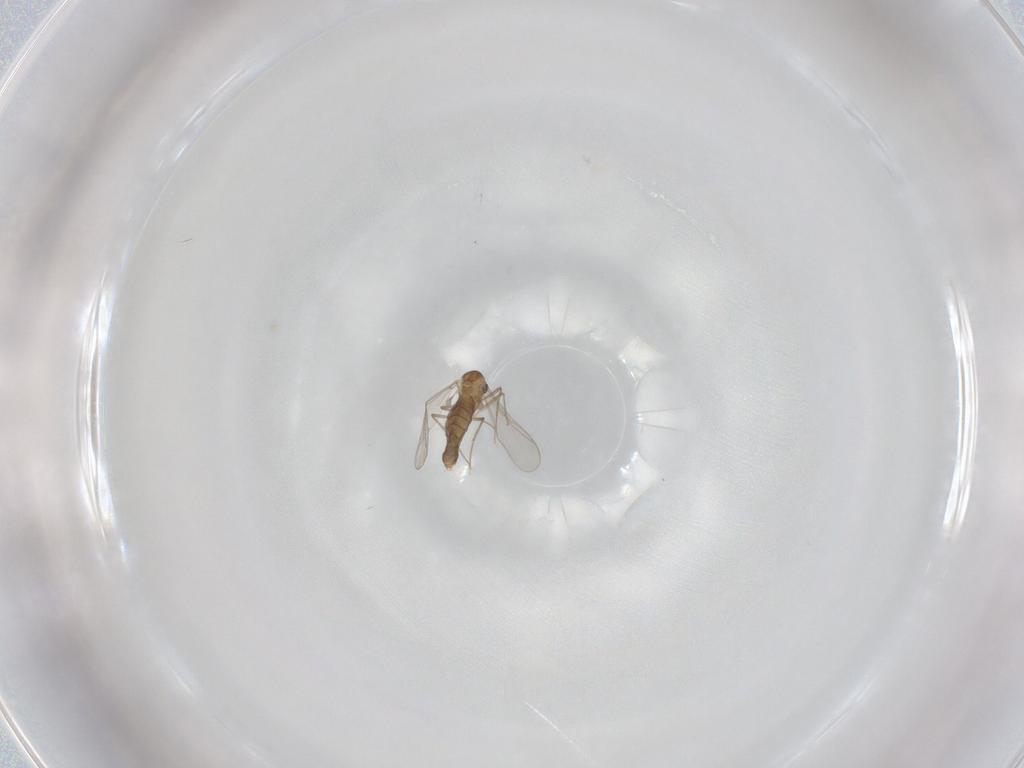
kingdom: Animalia
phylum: Arthropoda
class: Insecta
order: Diptera
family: Chironomidae
